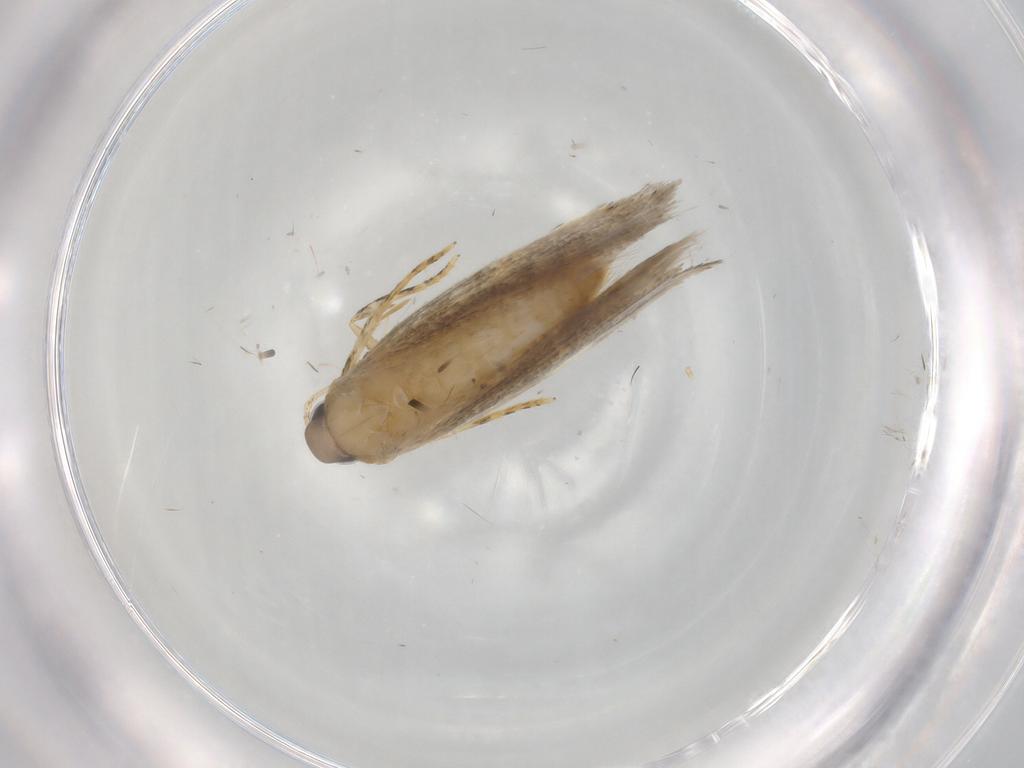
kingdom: Animalia
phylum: Arthropoda
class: Insecta
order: Lepidoptera
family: Autostichidae
